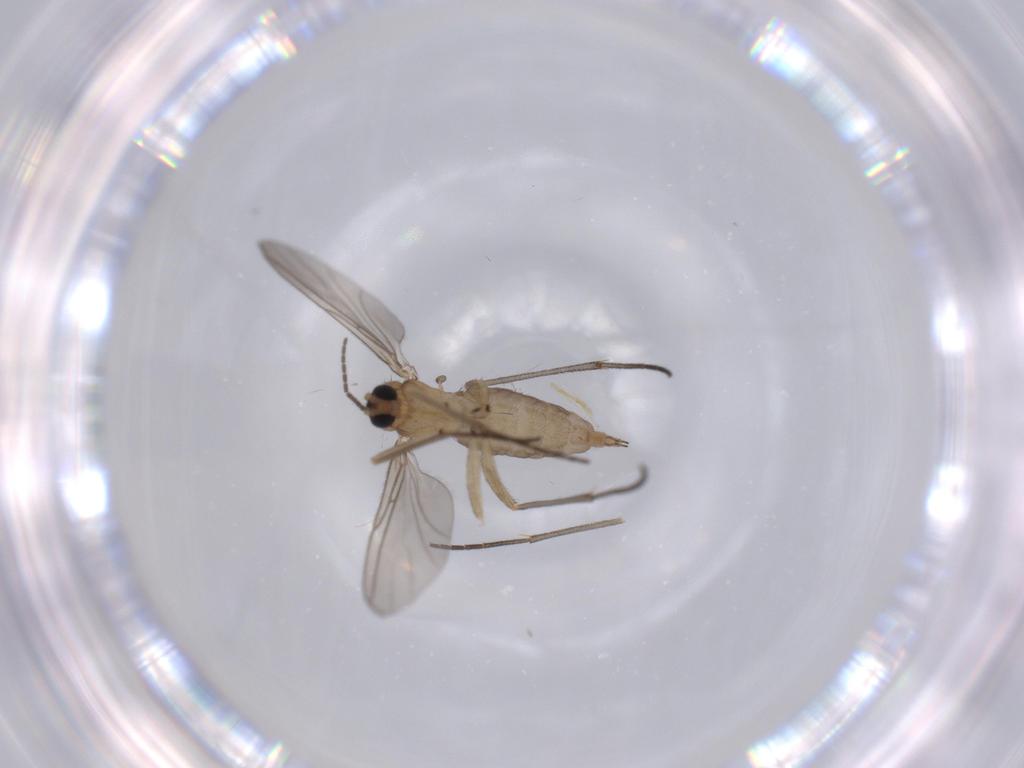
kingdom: Animalia
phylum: Arthropoda
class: Insecta
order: Diptera
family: Sciaridae
